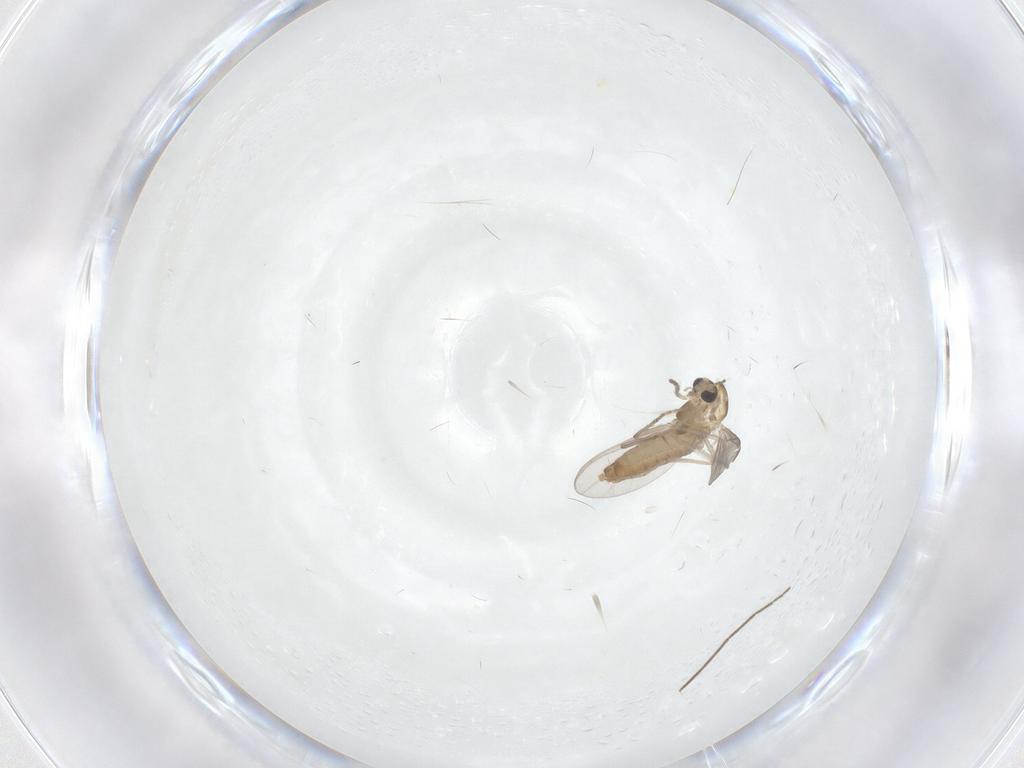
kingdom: Animalia
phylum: Arthropoda
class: Insecta
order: Diptera
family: Chironomidae
